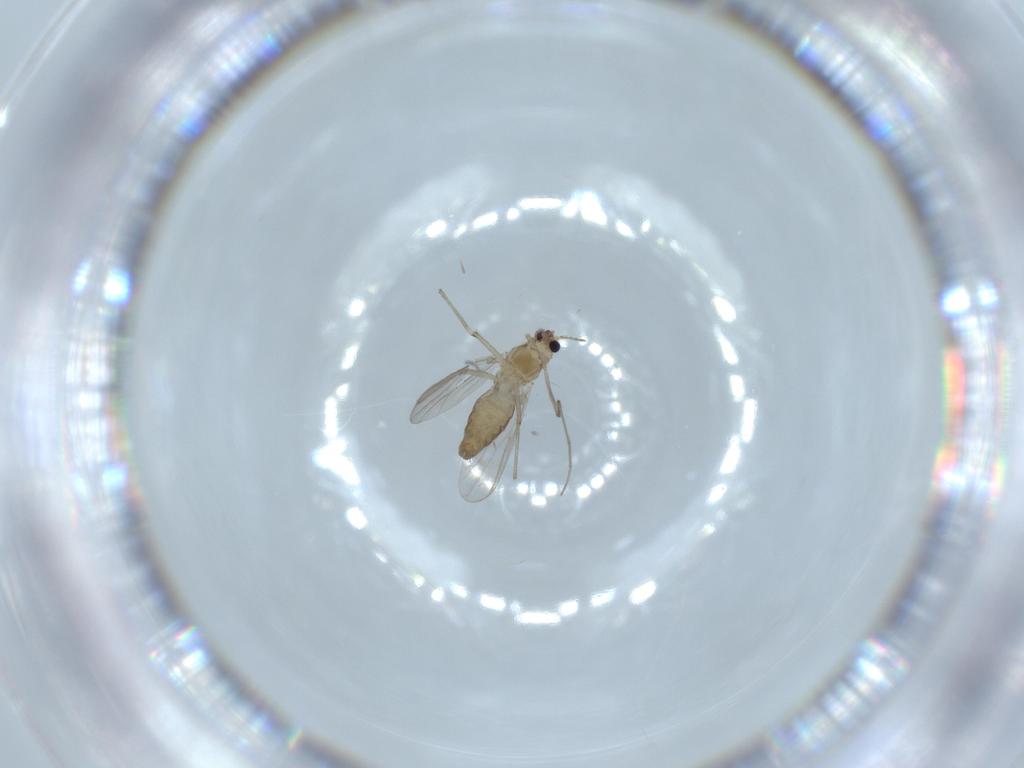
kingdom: Animalia
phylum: Arthropoda
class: Insecta
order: Diptera
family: Chironomidae
